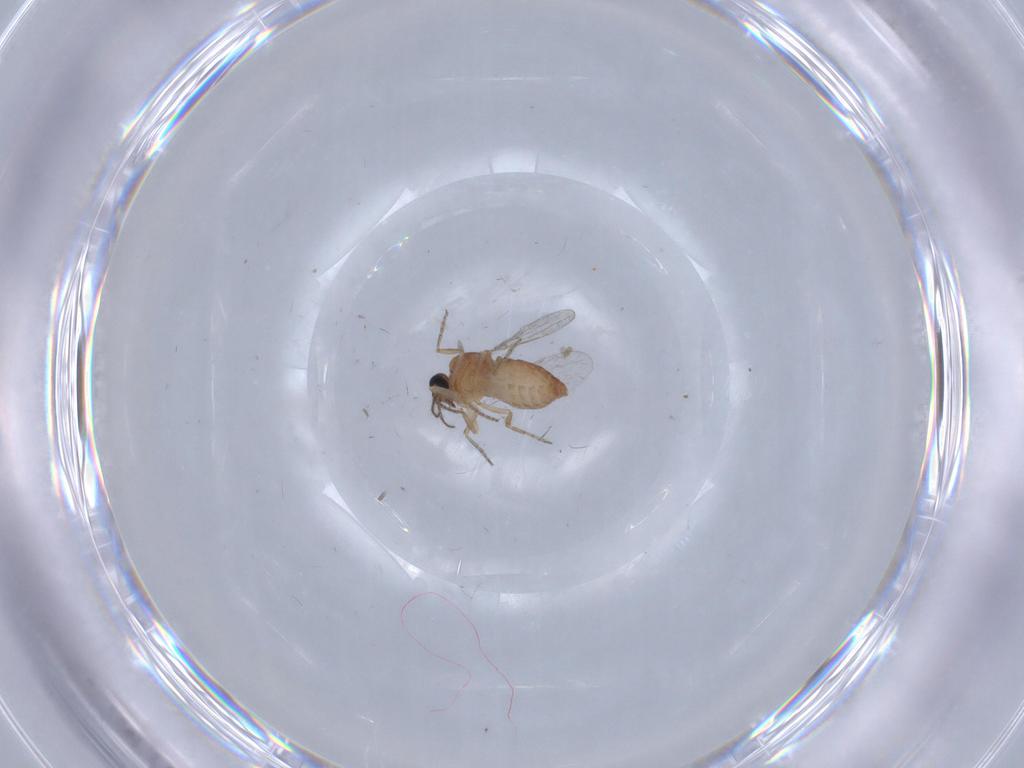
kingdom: Animalia
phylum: Arthropoda
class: Insecta
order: Diptera
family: Ceratopogonidae
